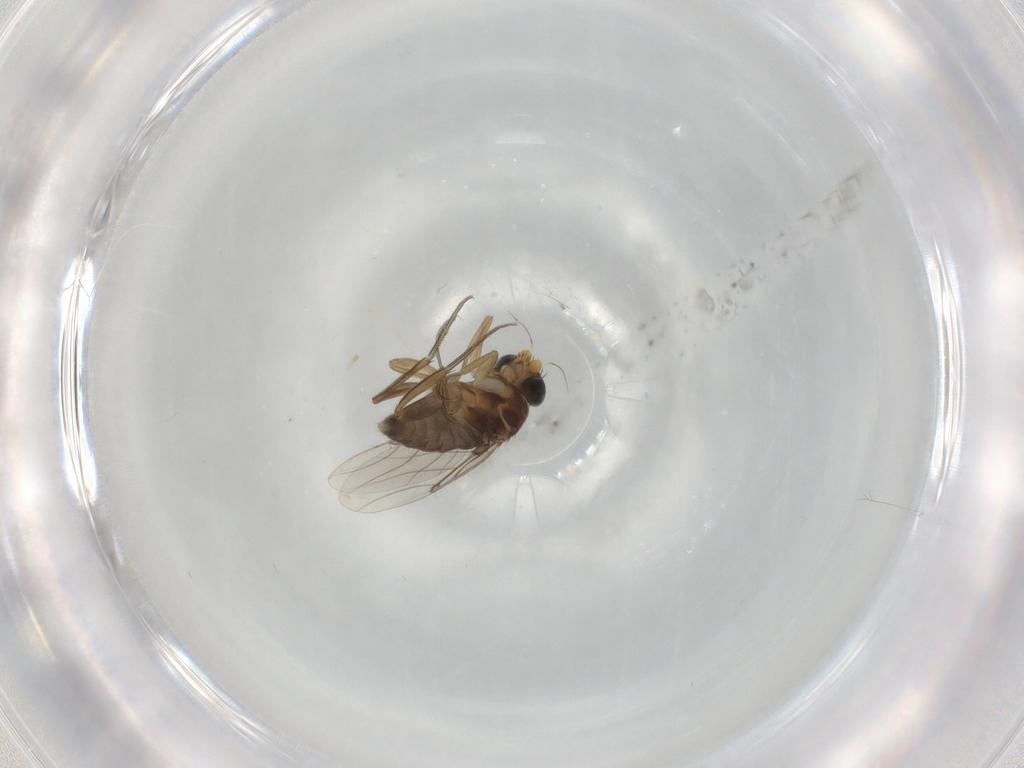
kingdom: Animalia
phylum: Arthropoda
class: Insecta
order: Diptera
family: Phoridae
